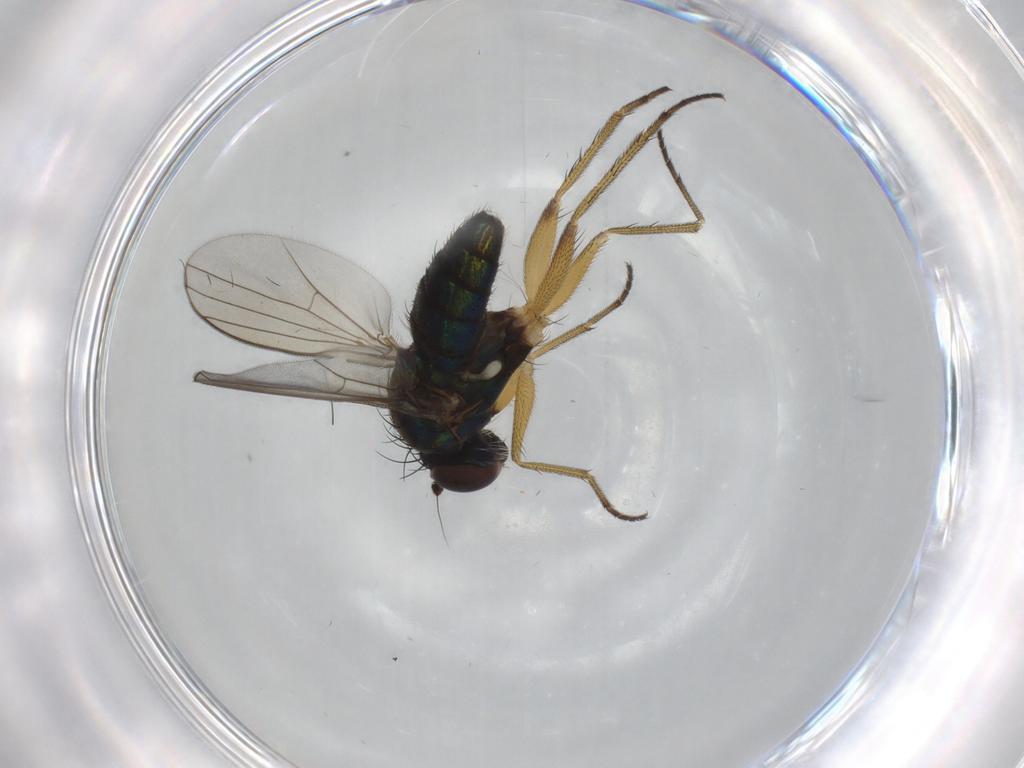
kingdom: Animalia
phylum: Arthropoda
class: Insecta
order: Diptera
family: Dolichopodidae
